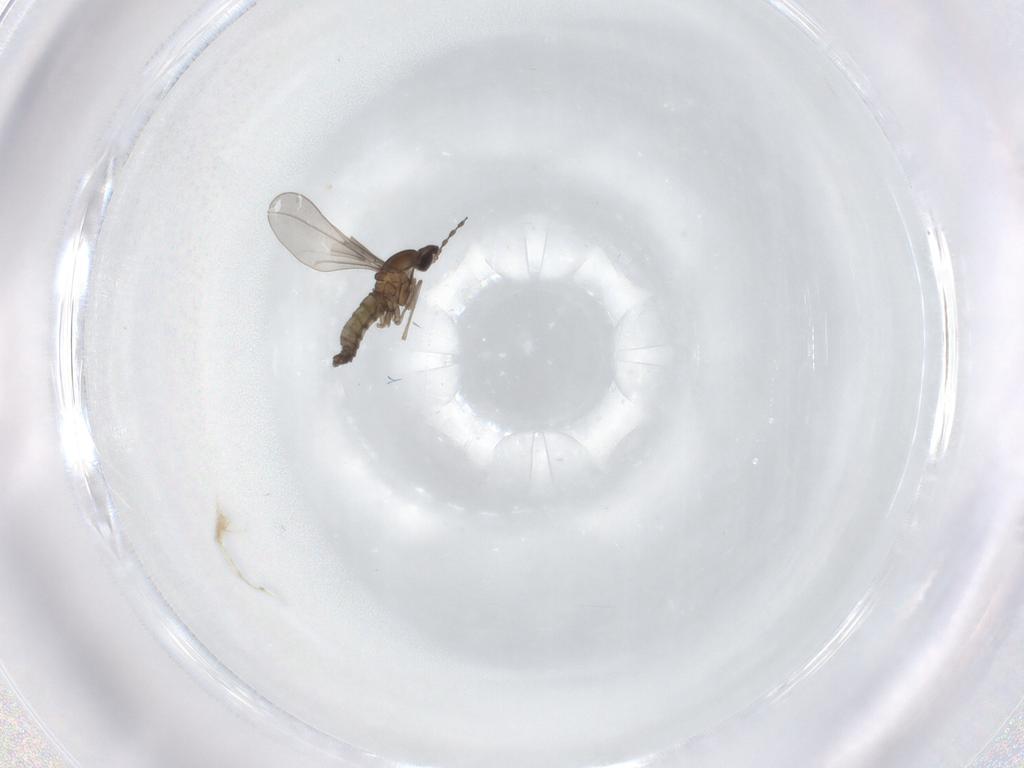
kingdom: Animalia
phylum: Arthropoda
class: Insecta
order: Diptera
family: Cecidomyiidae
